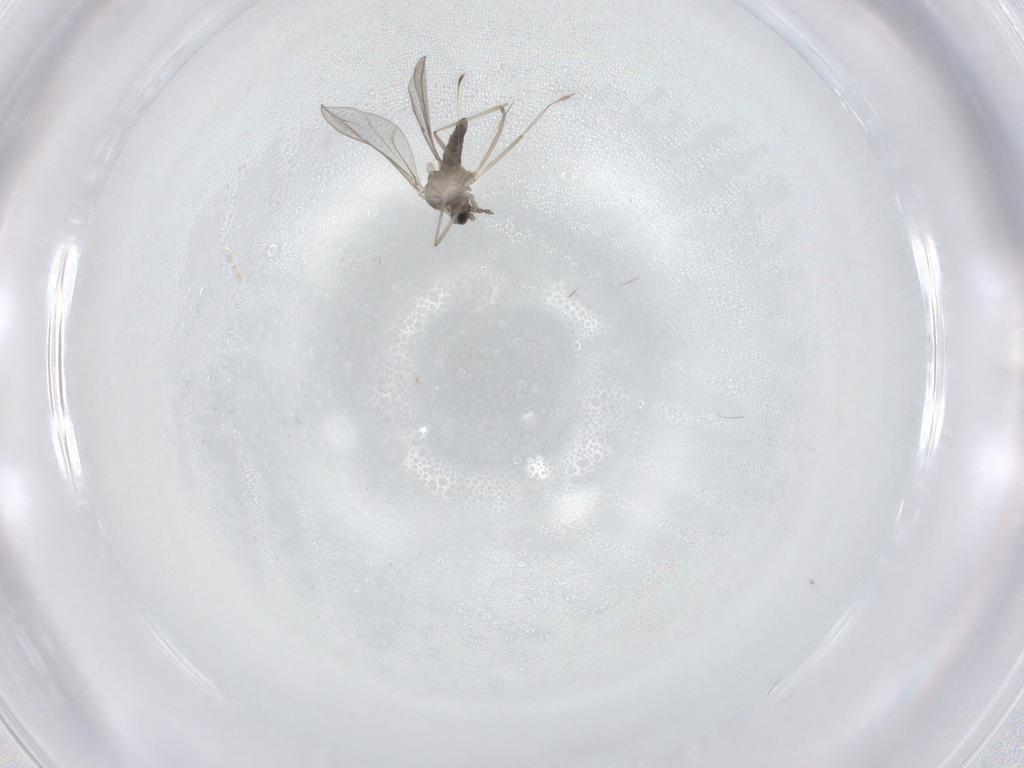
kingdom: Animalia
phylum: Arthropoda
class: Insecta
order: Diptera
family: Cecidomyiidae
